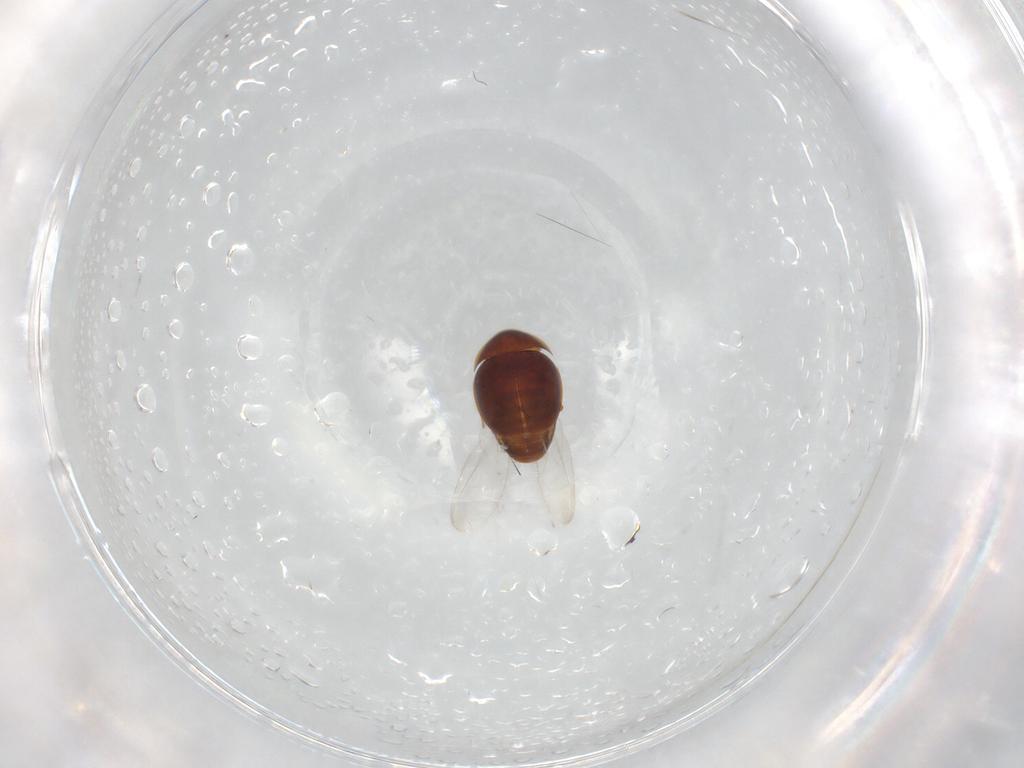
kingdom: Animalia
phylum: Arthropoda
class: Insecta
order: Coleoptera
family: Corylophidae
